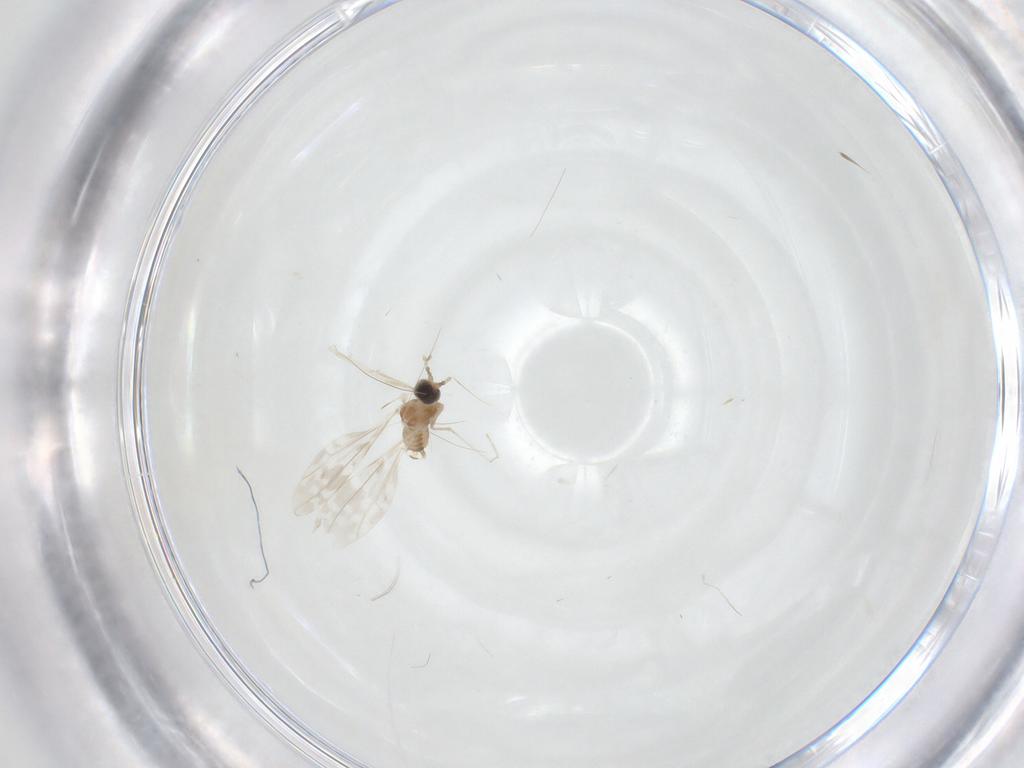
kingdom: Animalia
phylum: Arthropoda
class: Insecta
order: Diptera
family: Cecidomyiidae
